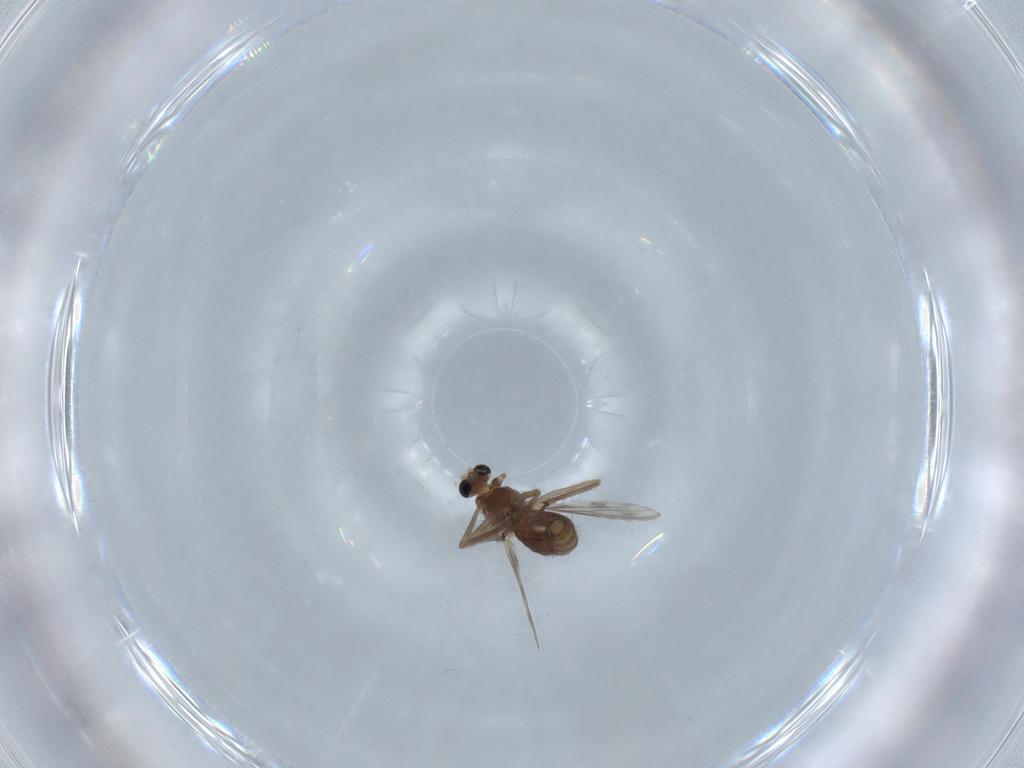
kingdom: Animalia
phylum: Arthropoda
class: Insecta
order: Diptera
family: Chironomidae
